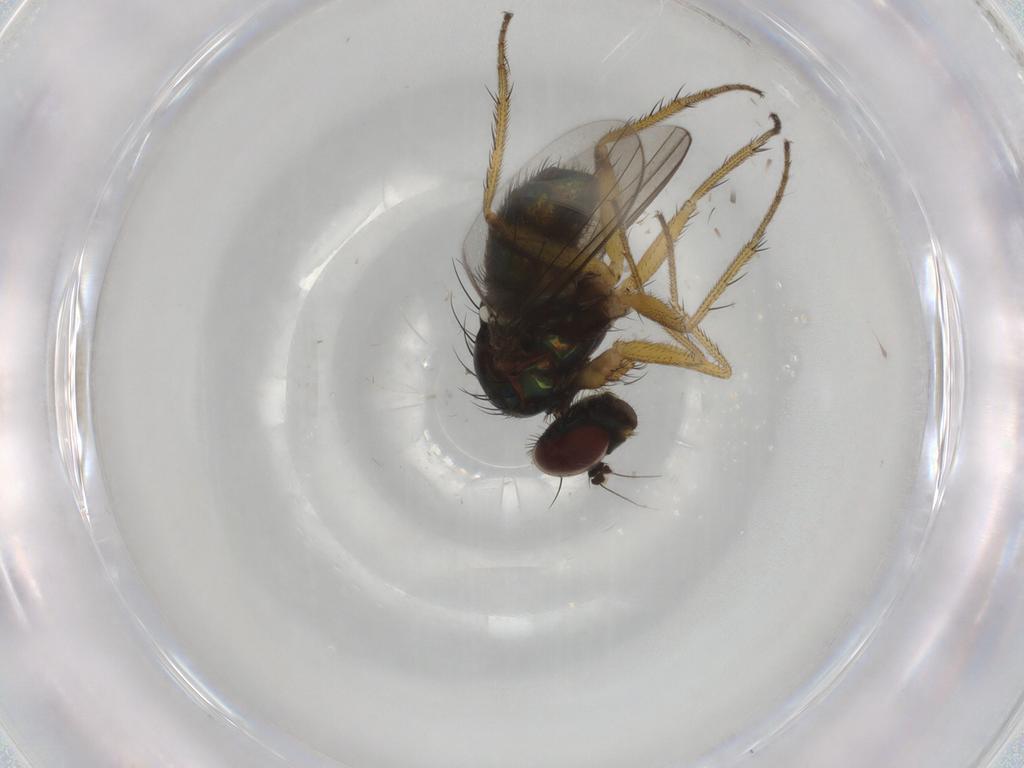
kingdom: Animalia
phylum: Arthropoda
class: Insecta
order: Diptera
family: Dolichopodidae
